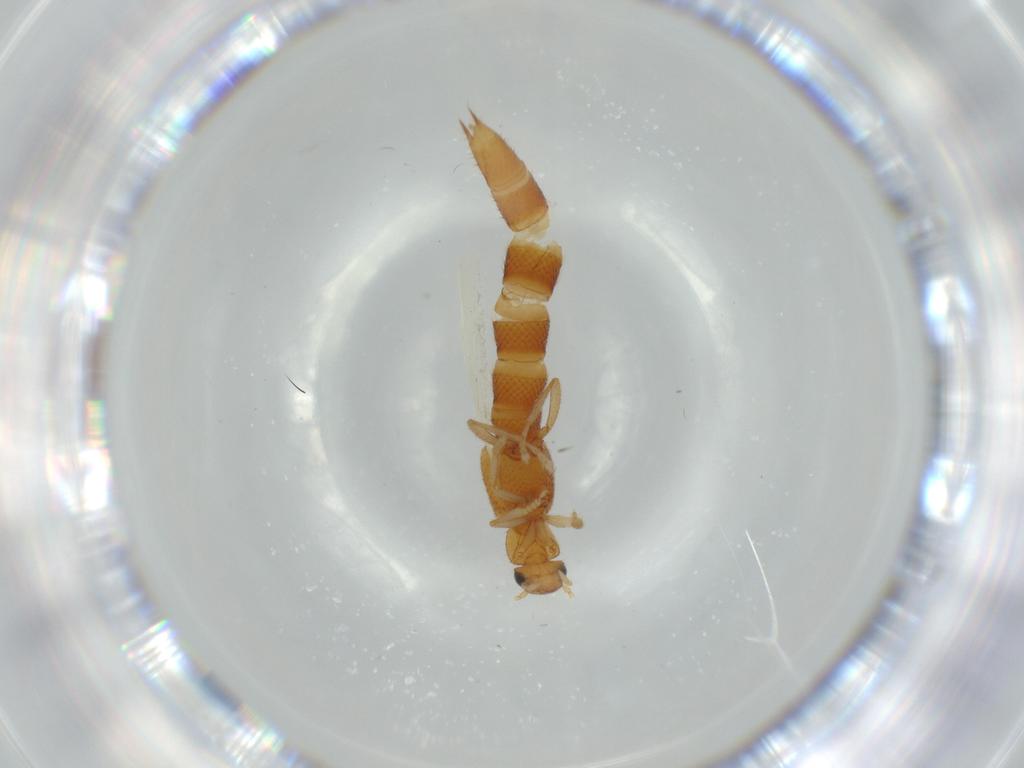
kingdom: Animalia
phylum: Arthropoda
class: Insecta
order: Coleoptera
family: Staphylinidae
